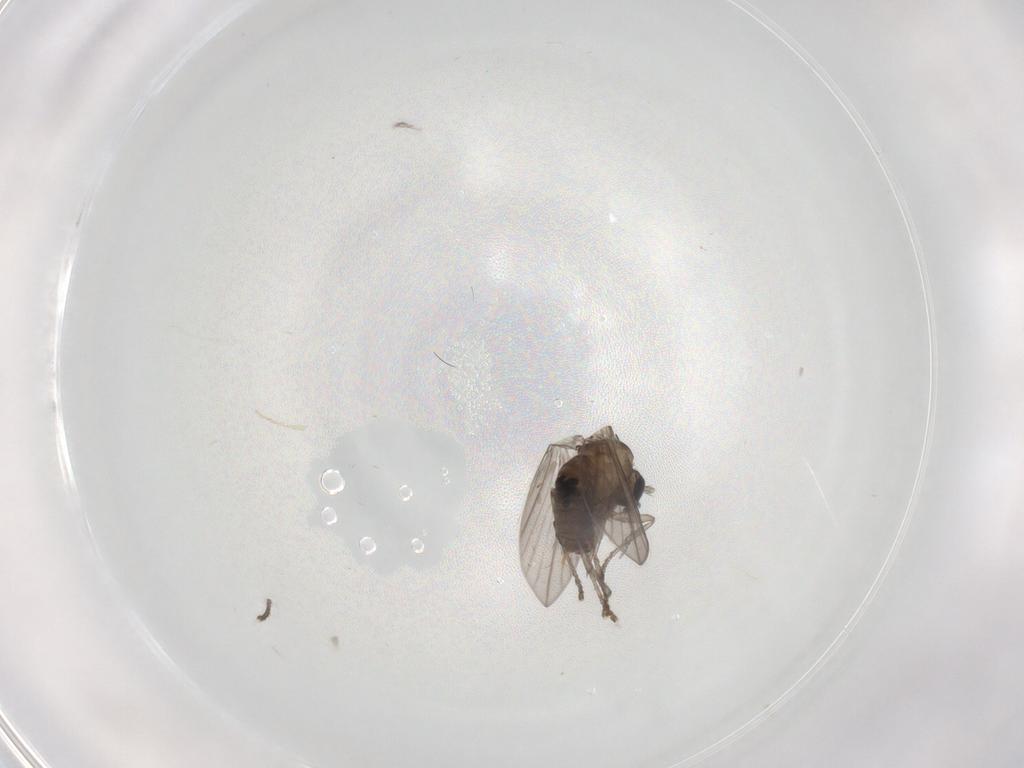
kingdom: Animalia
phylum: Arthropoda
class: Insecta
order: Diptera
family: Psychodidae
